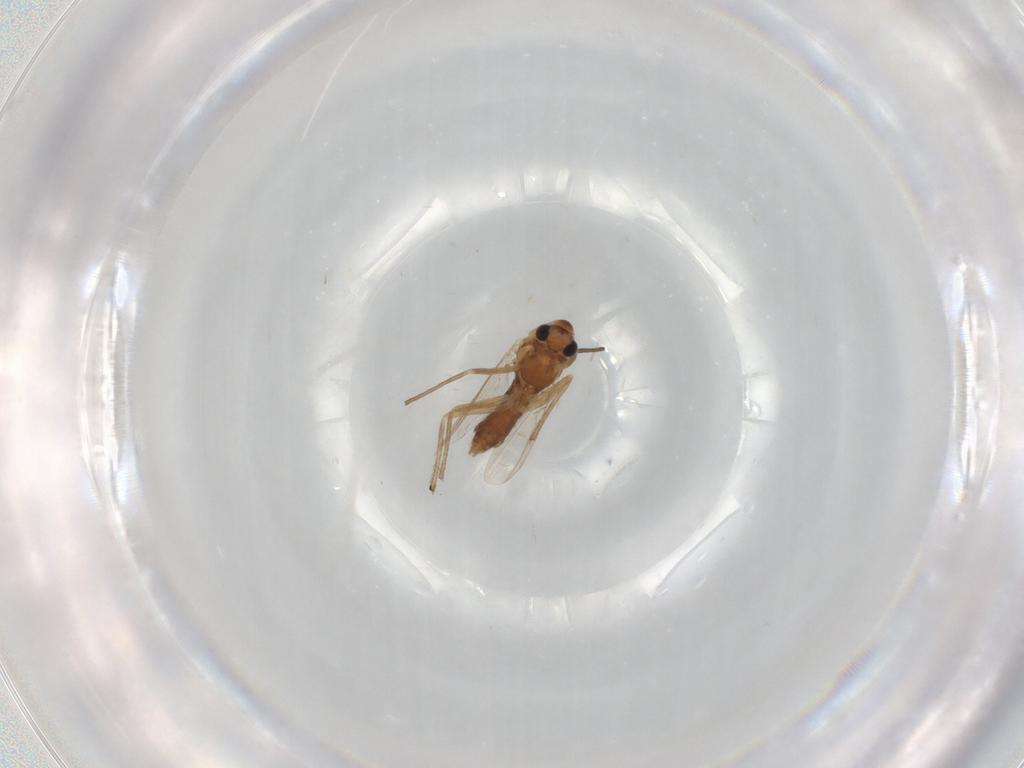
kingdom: Animalia
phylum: Arthropoda
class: Insecta
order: Diptera
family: Chironomidae
